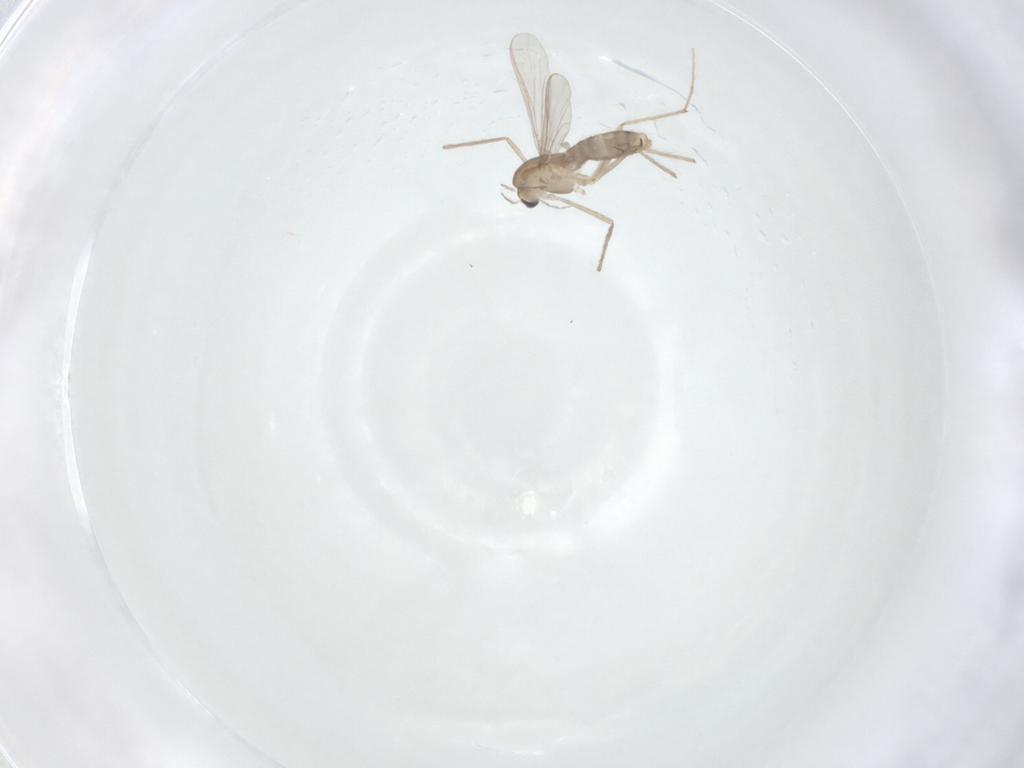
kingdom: Animalia
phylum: Arthropoda
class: Insecta
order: Diptera
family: Chironomidae
